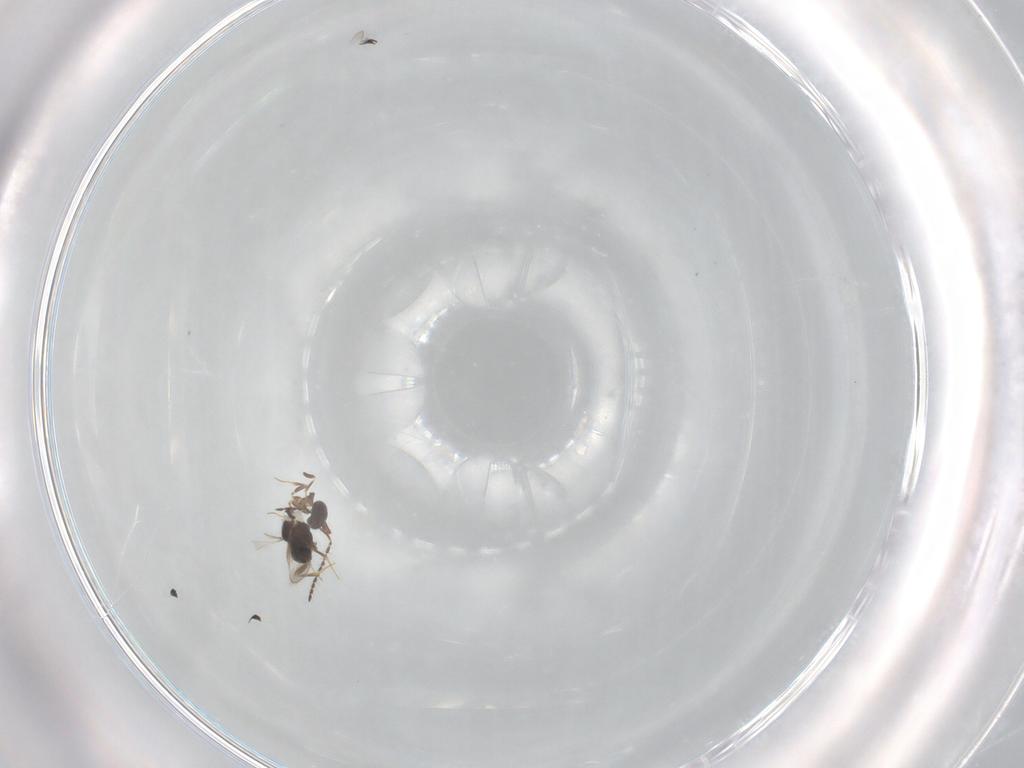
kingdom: Animalia
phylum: Arthropoda
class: Insecta
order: Hymenoptera
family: Ceraphronidae
